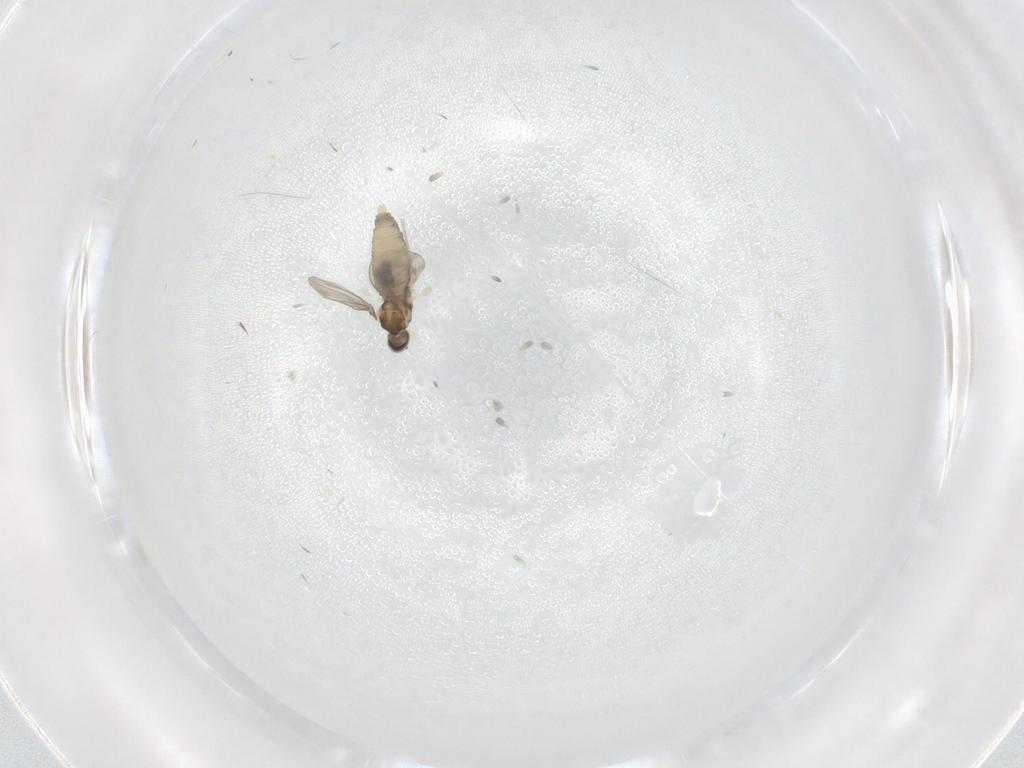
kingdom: Animalia
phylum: Arthropoda
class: Insecta
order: Diptera
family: Cecidomyiidae
